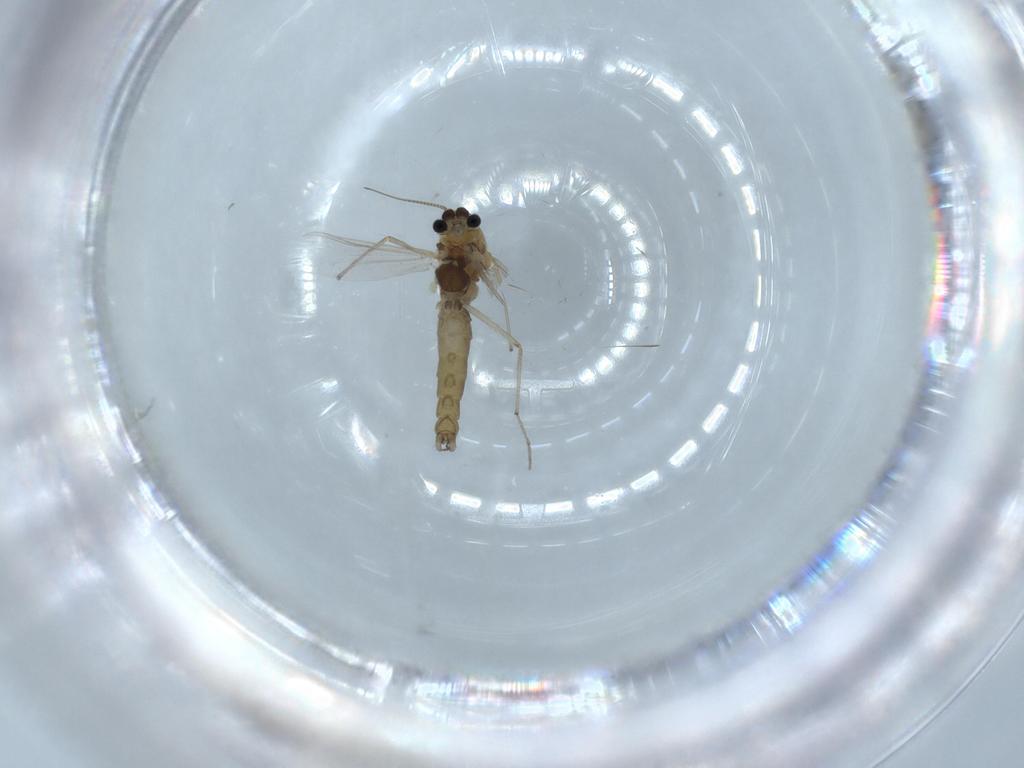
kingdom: Animalia
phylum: Arthropoda
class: Insecta
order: Diptera
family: Chironomidae
